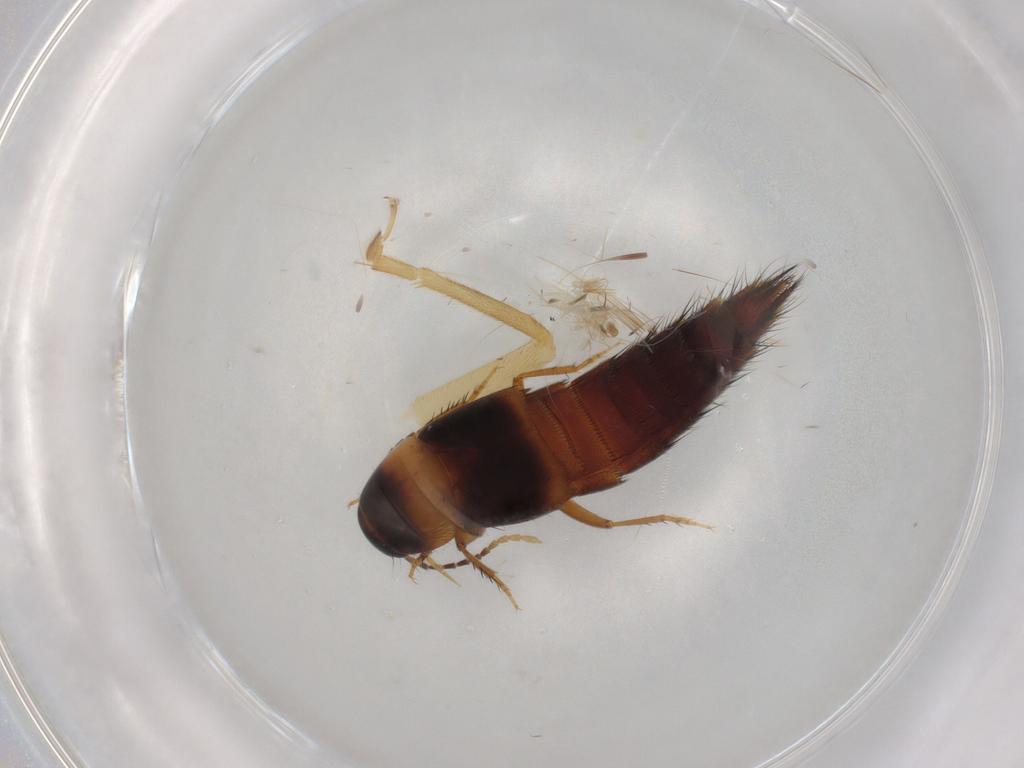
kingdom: Animalia
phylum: Arthropoda
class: Insecta
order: Coleoptera
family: Staphylinidae
